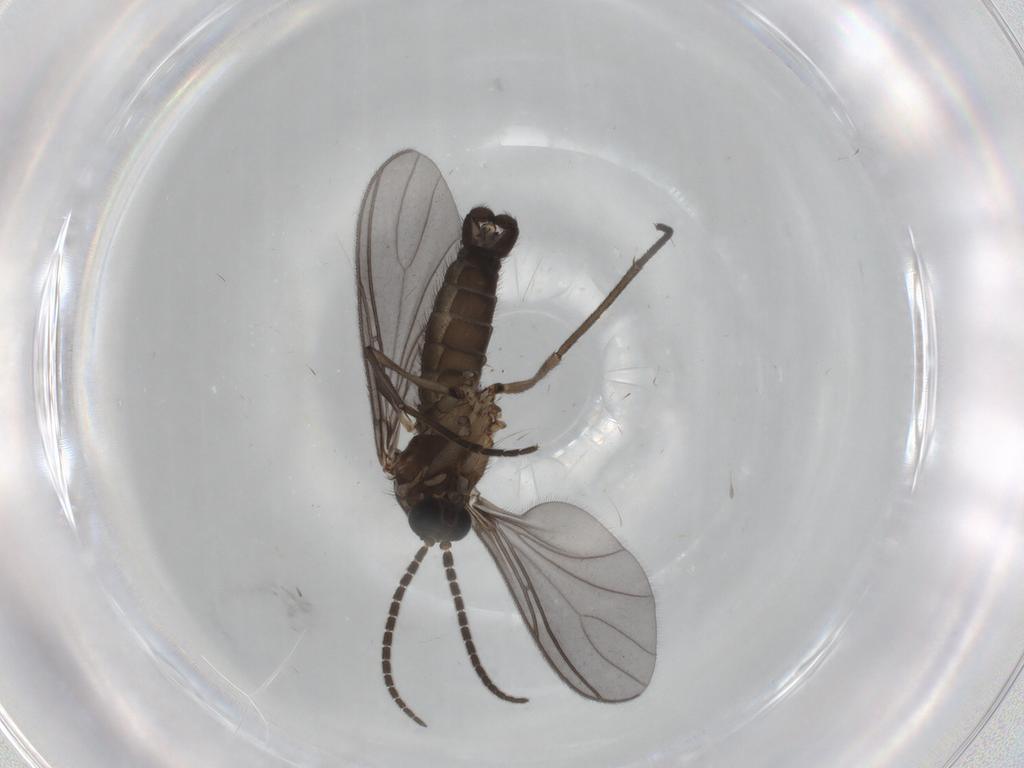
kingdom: Animalia
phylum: Arthropoda
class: Insecta
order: Diptera
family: Sciaridae
